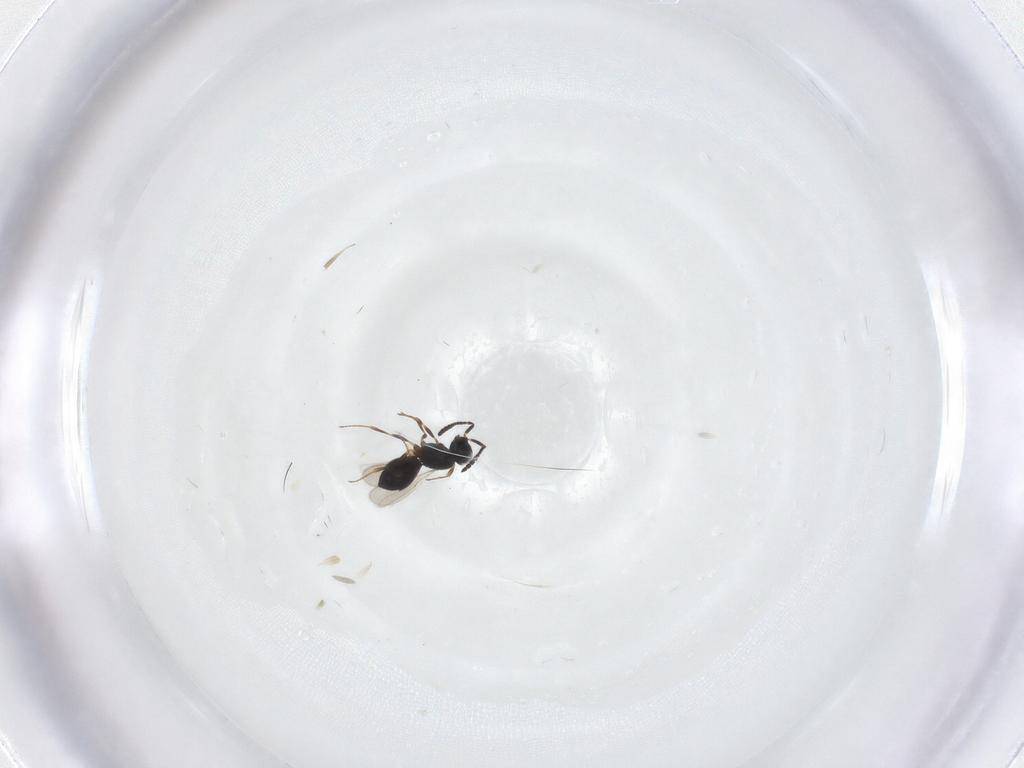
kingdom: Animalia
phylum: Arthropoda
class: Insecta
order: Hymenoptera
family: Scelionidae
